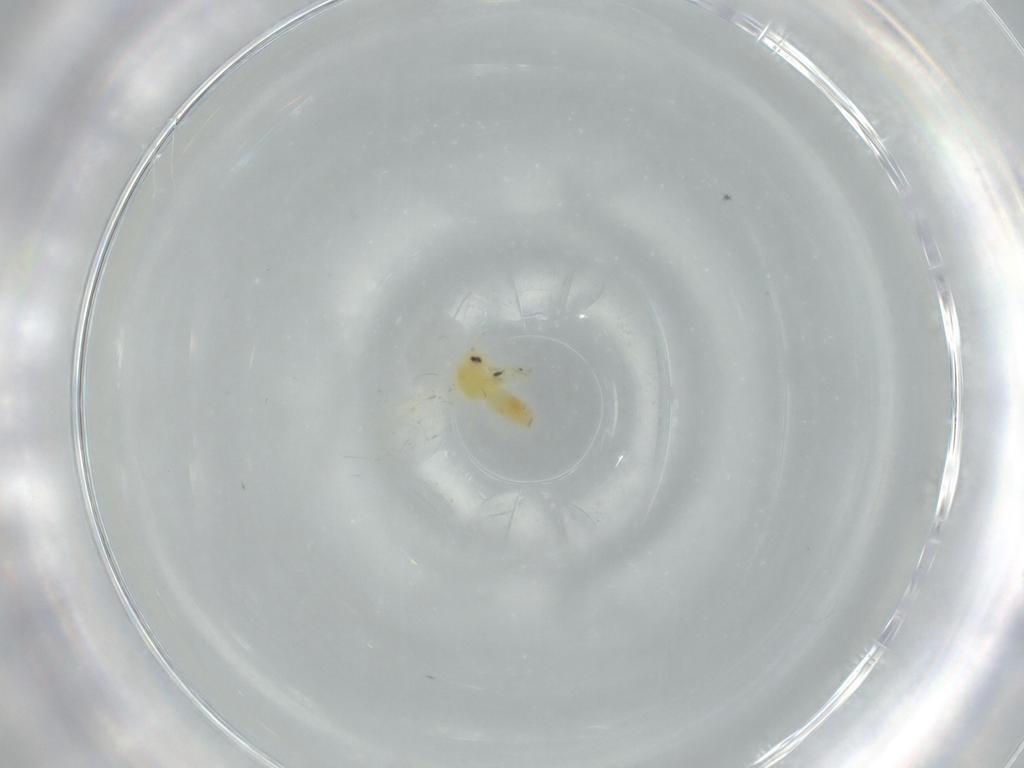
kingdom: Animalia
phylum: Arthropoda
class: Insecta
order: Hemiptera
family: Aleyrodidae
